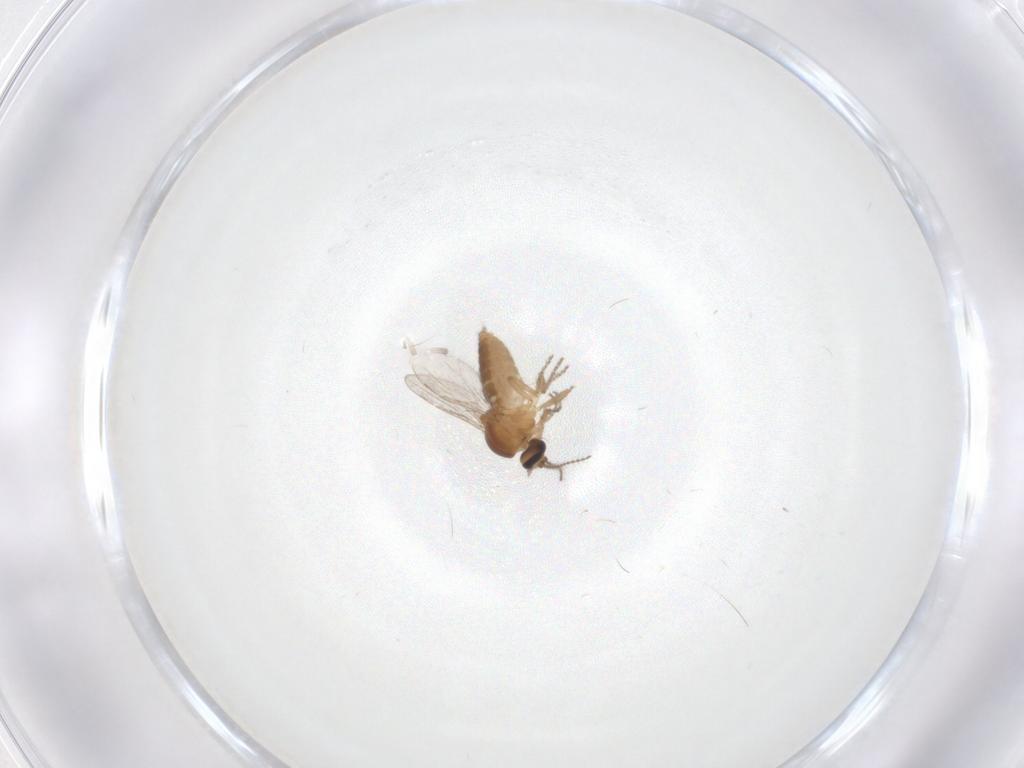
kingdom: Animalia
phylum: Arthropoda
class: Insecta
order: Diptera
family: Ceratopogonidae
